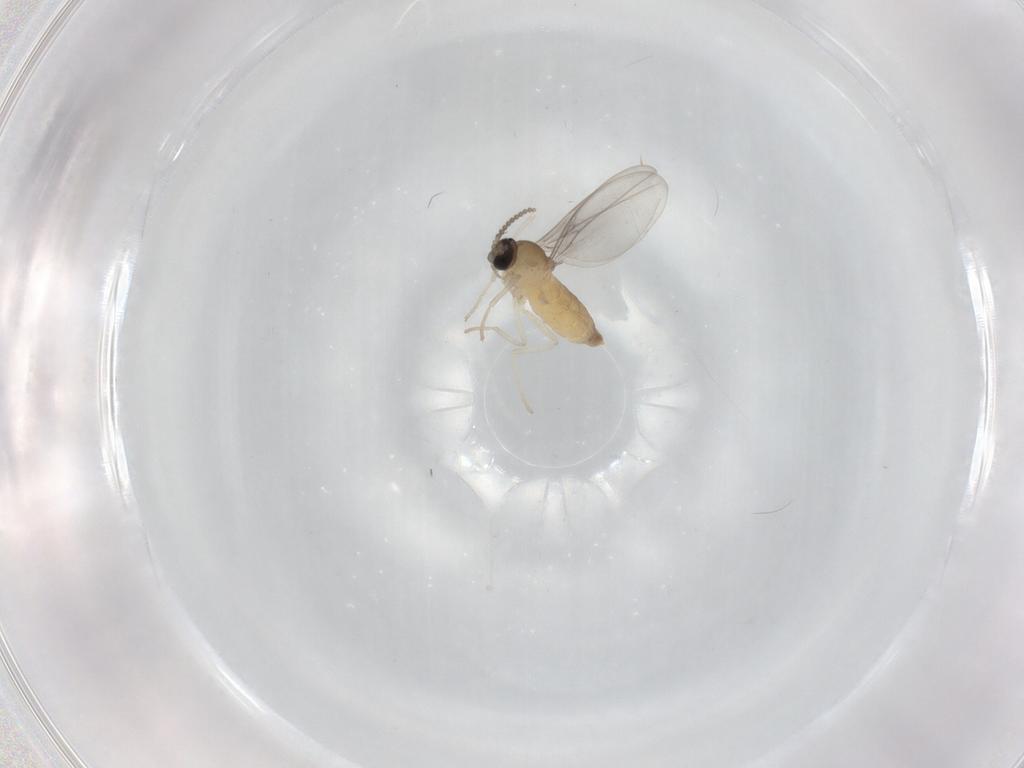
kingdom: Animalia
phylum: Arthropoda
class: Insecta
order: Diptera
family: Cecidomyiidae
